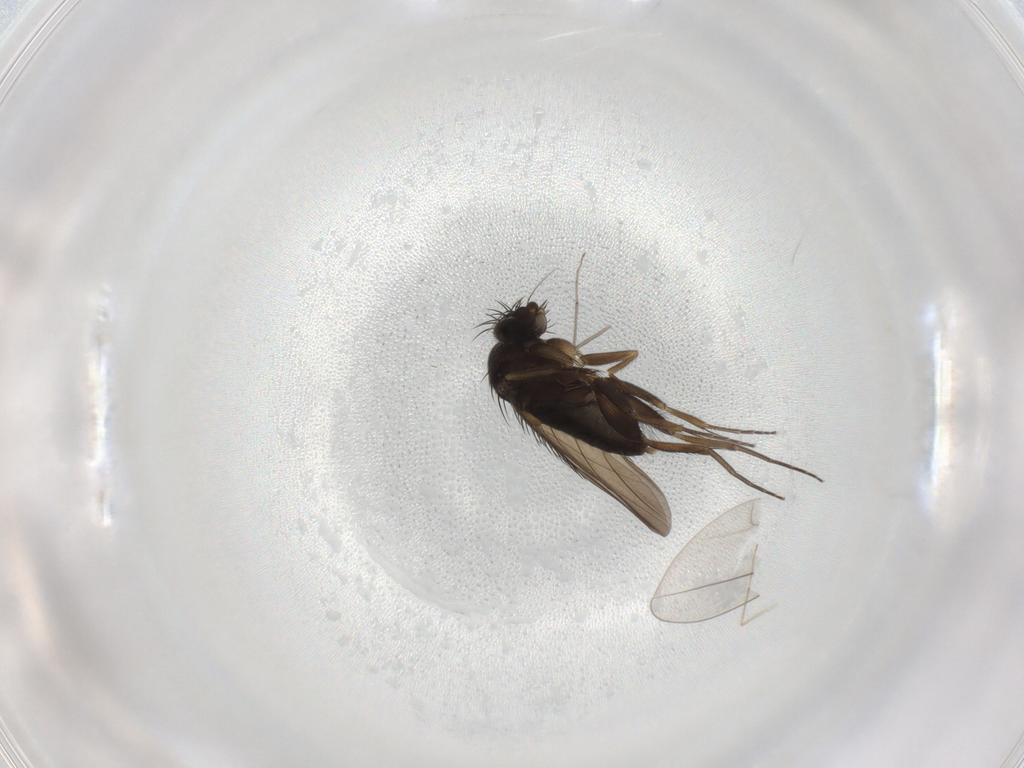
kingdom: Animalia
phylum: Arthropoda
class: Insecta
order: Diptera
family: Phoridae
